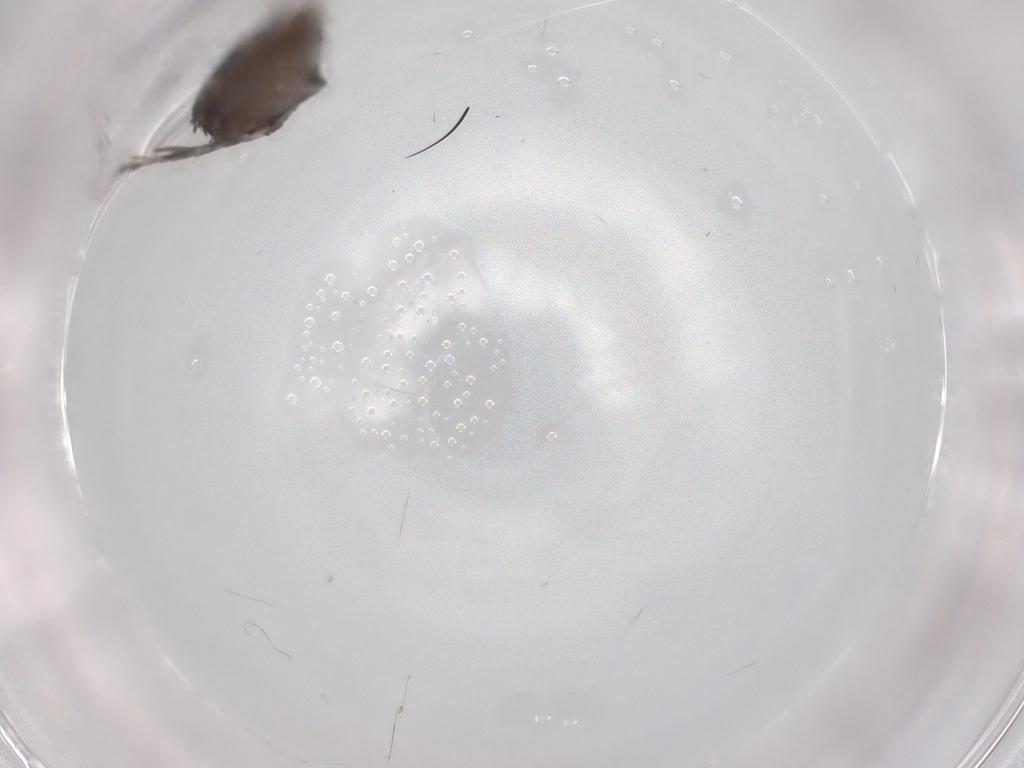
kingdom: Animalia
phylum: Arthropoda
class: Insecta
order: Lepidoptera
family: Nepticulidae
